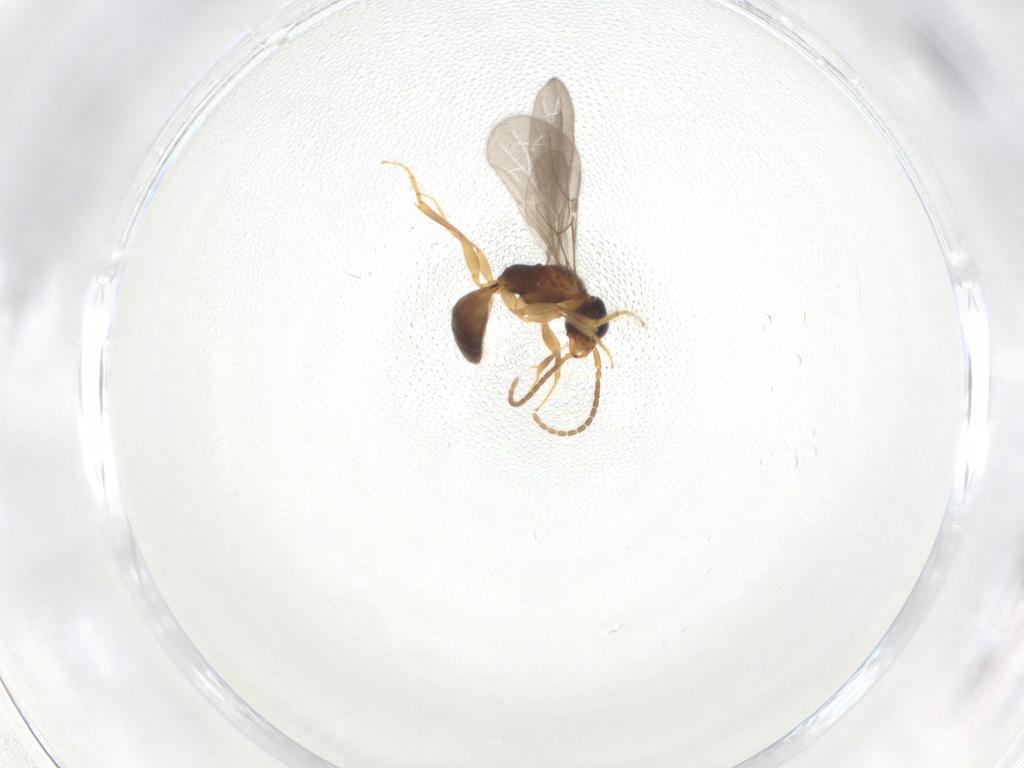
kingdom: Animalia
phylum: Arthropoda
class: Insecta
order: Hymenoptera
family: Bethylidae
